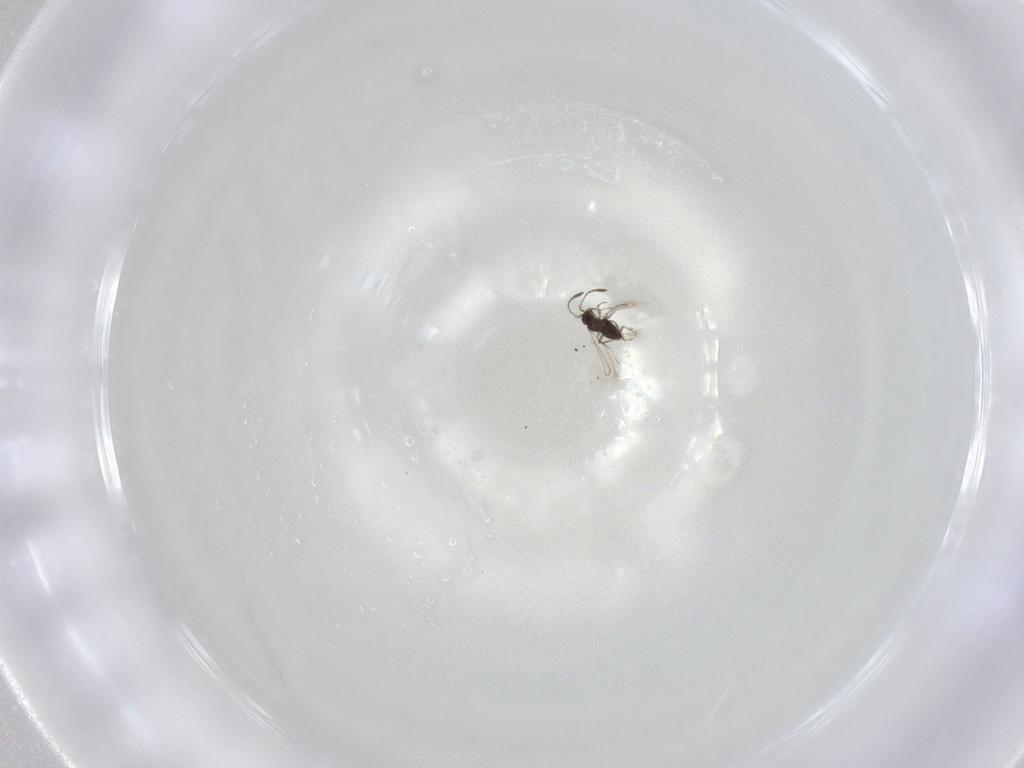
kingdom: Animalia
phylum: Arthropoda
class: Insecta
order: Hymenoptera
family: Mymaridae
